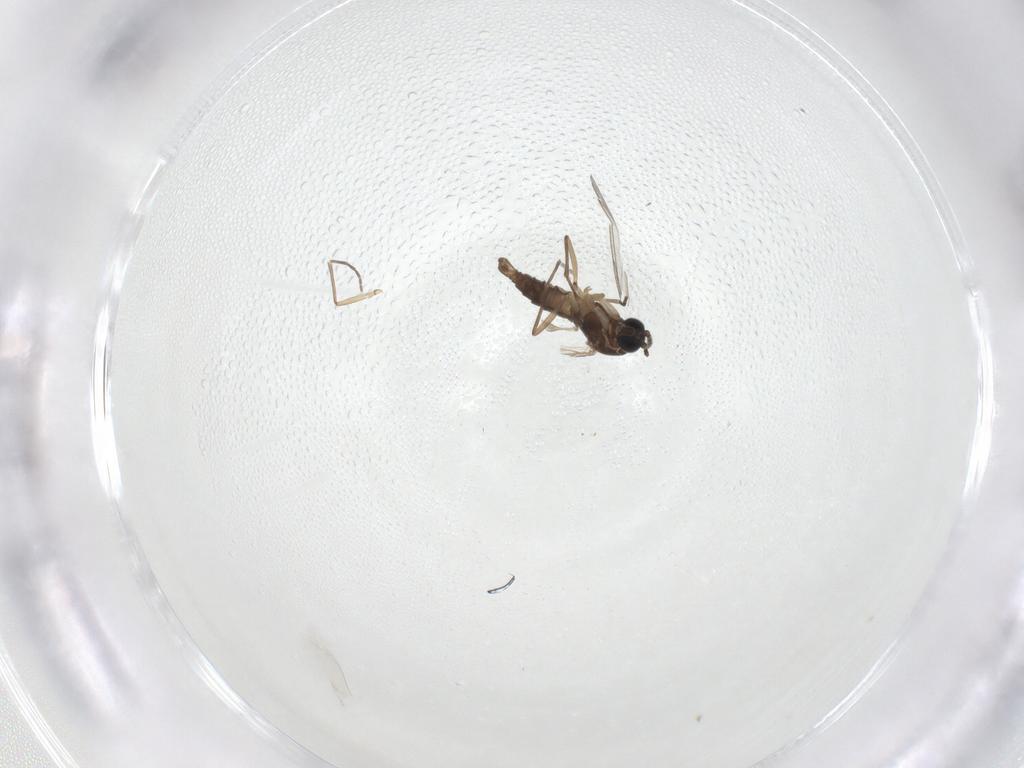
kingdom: Animalia
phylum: Arthropoda
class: Insecta
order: Diptera
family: Sciaridae
